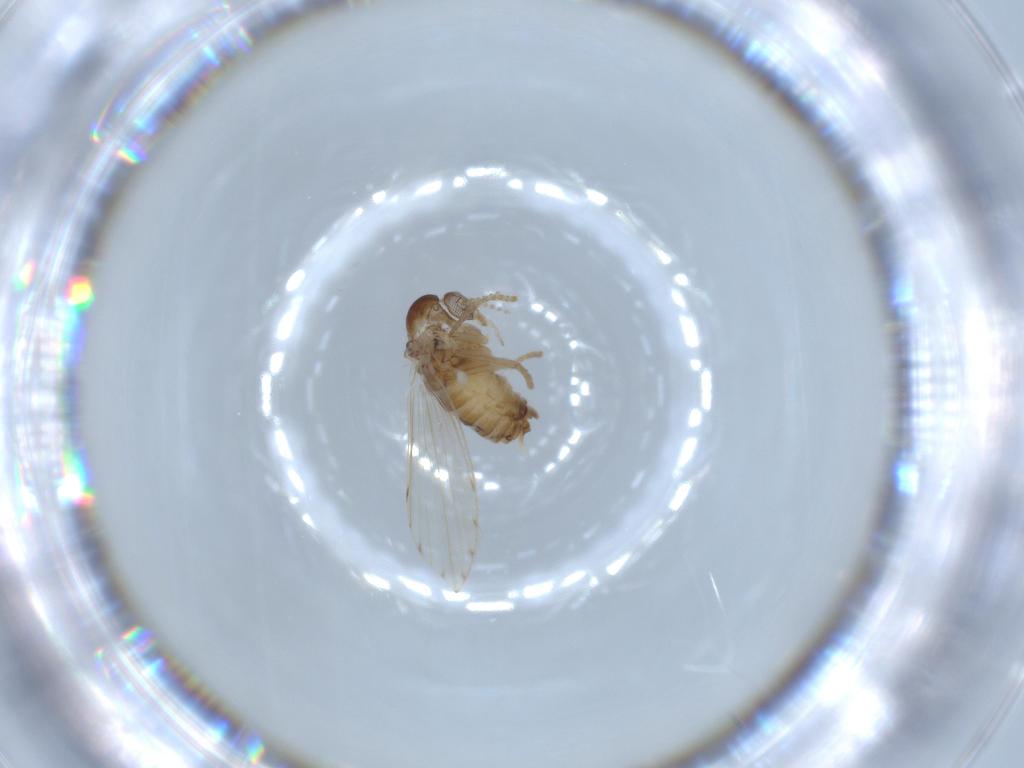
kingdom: Animalia
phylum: Arthropoda
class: Insecta
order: Diptera
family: Psychodidae
